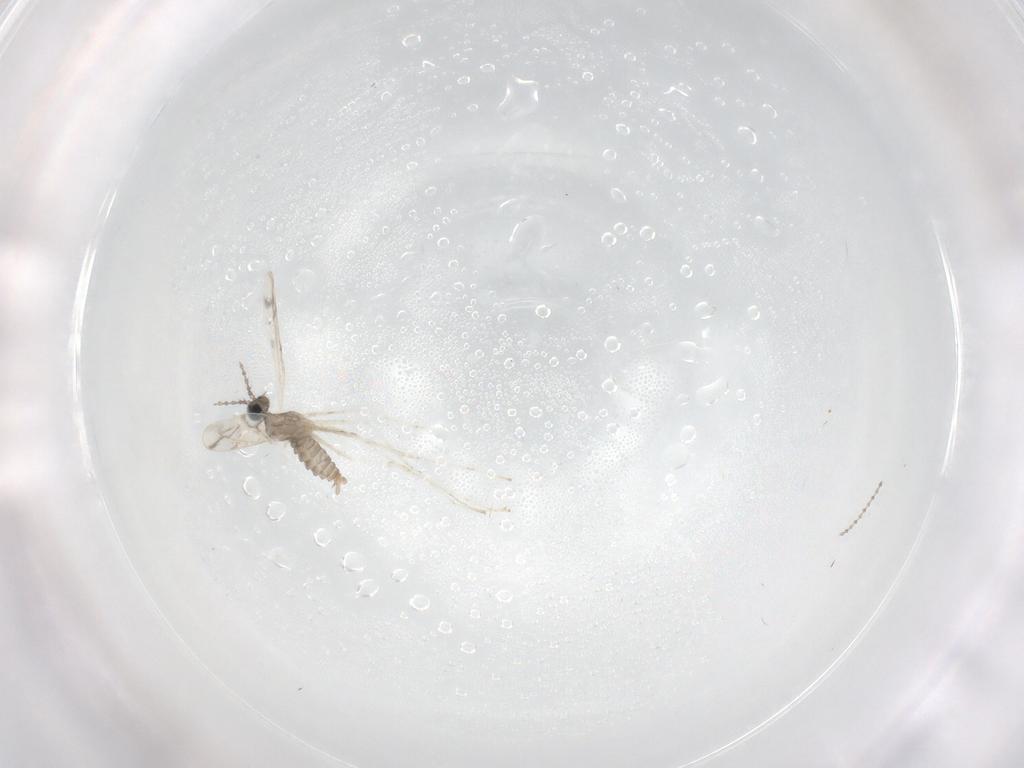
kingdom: Animalia
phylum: Arthropoda
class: Insecta
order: Diptera
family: Cecidomyiidae
